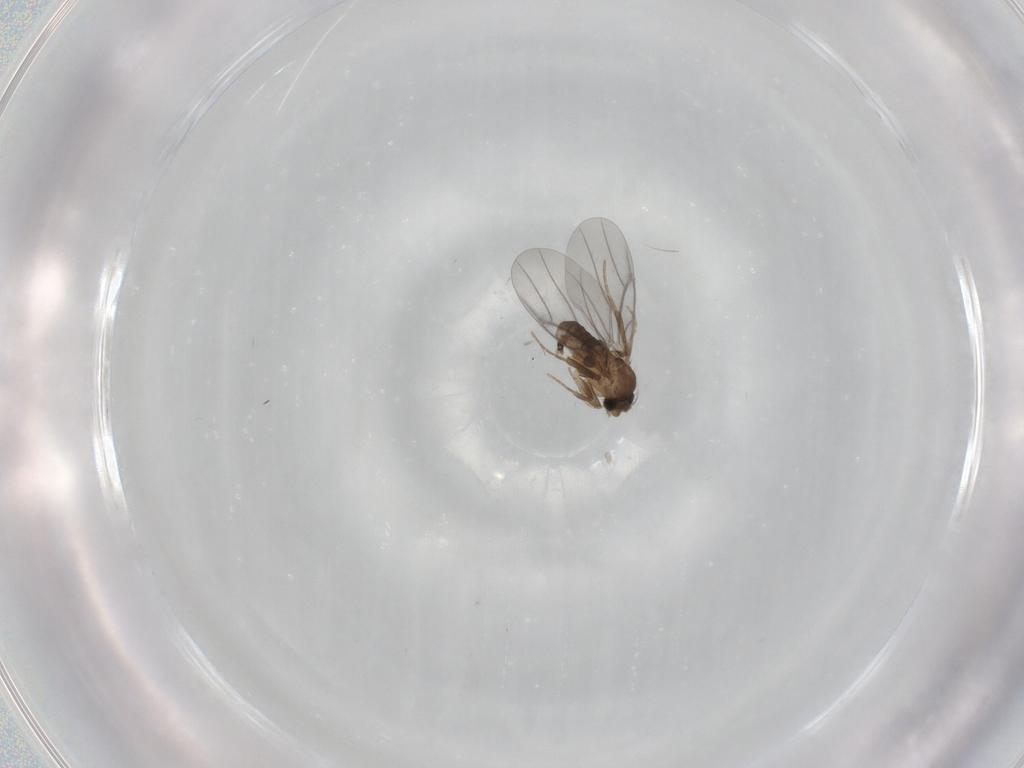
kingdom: Animalia
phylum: Arthropoda
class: Insecta
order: Diptera
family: Cecidomyiidae
